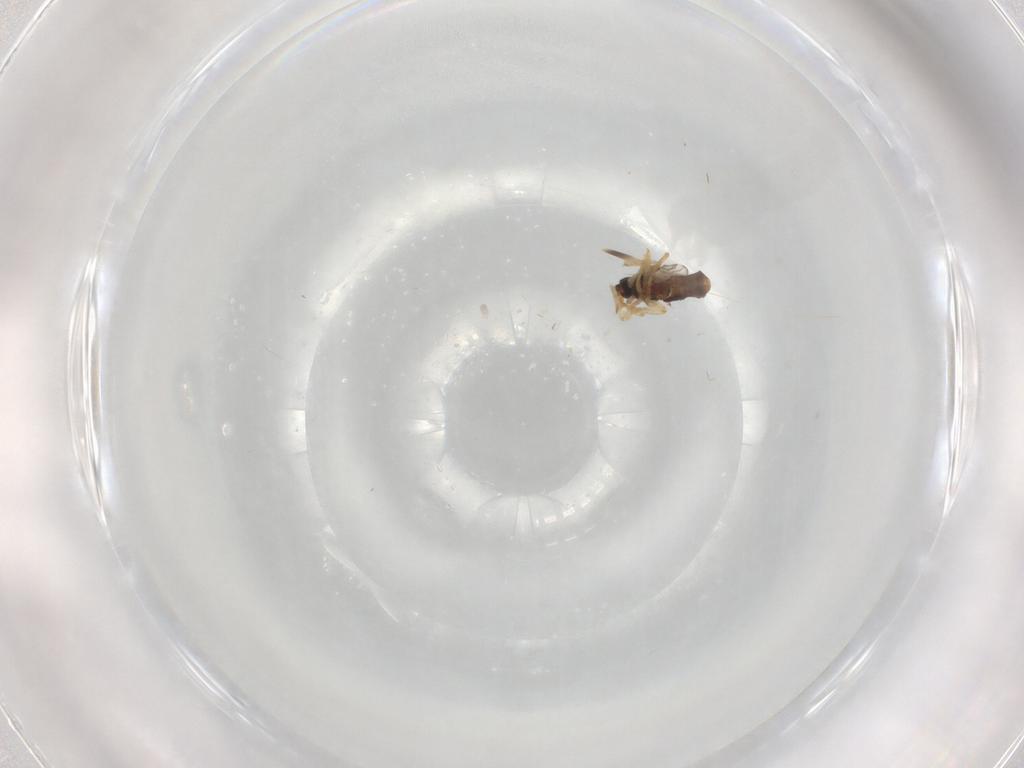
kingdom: Animalia
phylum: Arthropoda
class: Insecta
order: Diptera
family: Ceratopogonidae
